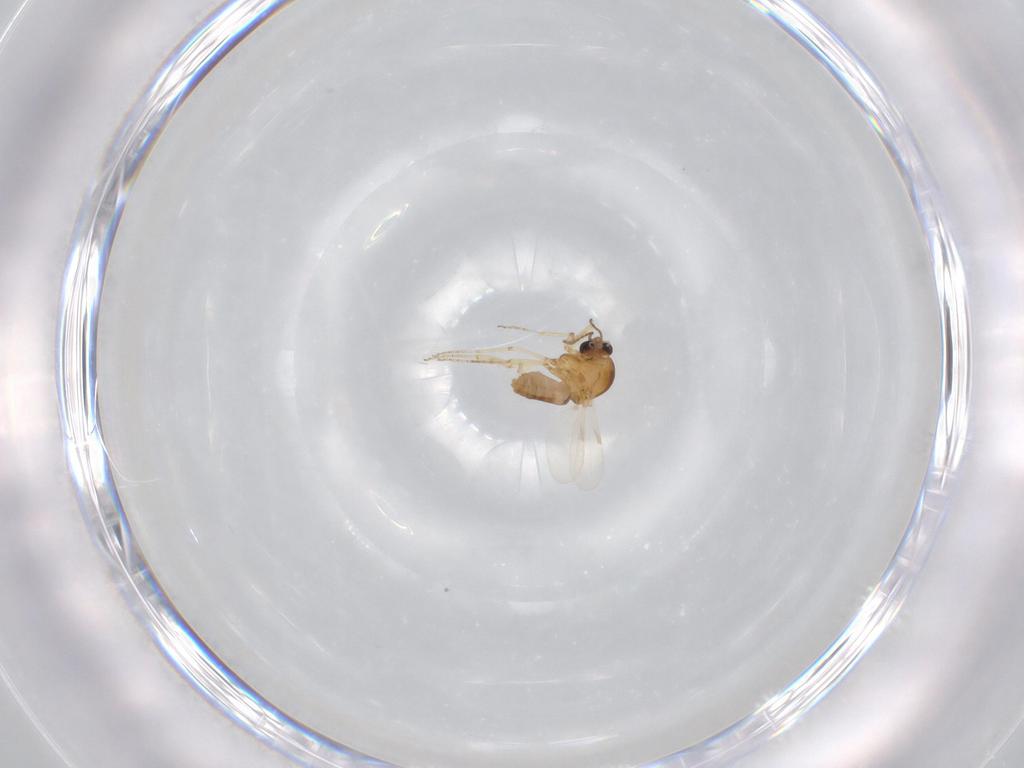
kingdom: Animalia
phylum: Arthropoda
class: Insecta
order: Diptera
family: Ceratopogonidae
